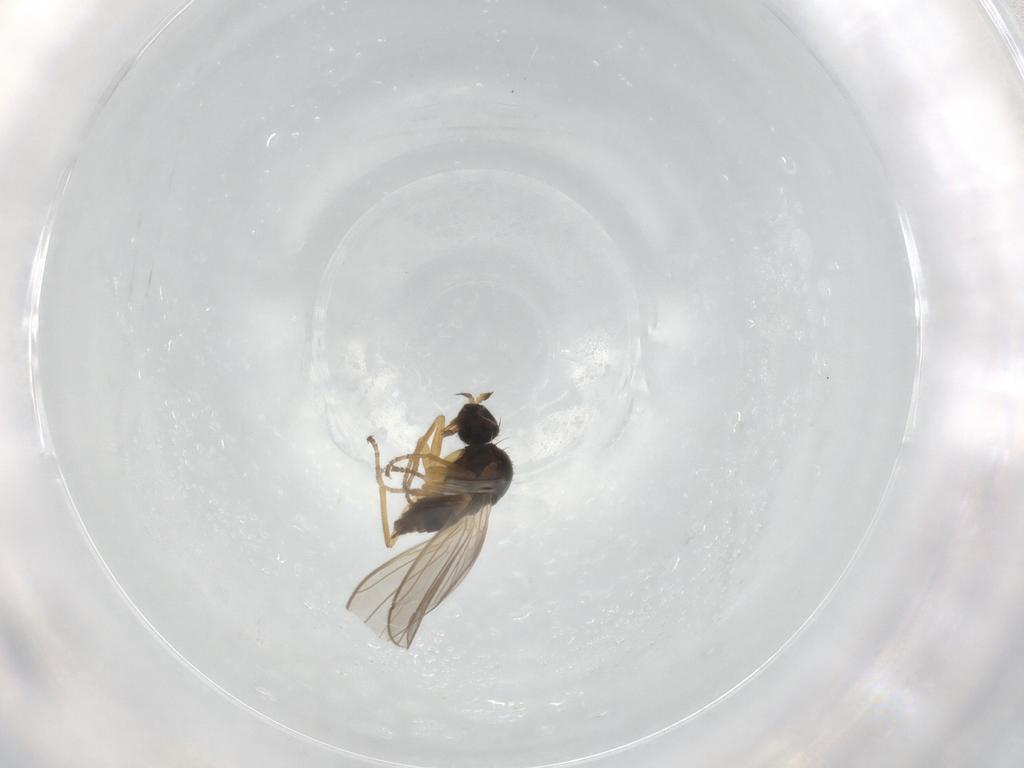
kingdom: Animalia
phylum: Arthropoda
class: Insecta
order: Diptera
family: Hybotidae
